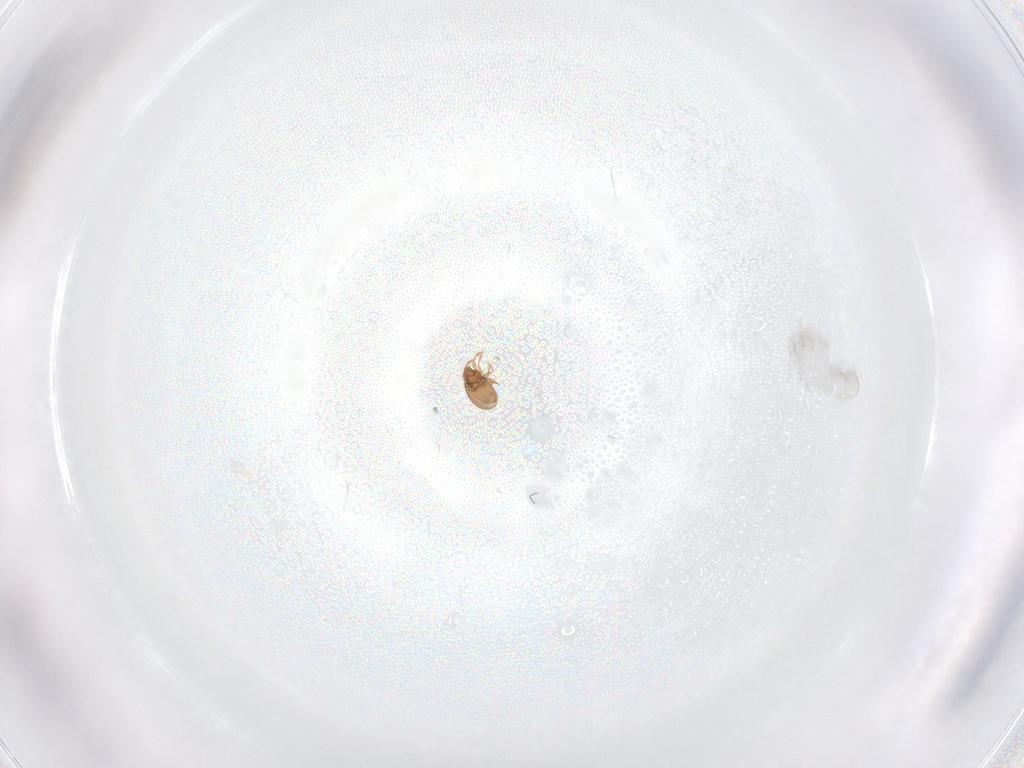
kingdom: Animalia
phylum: Arthropoda
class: Arachnida
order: Sarcoptiformes
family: Scheloribatidae
